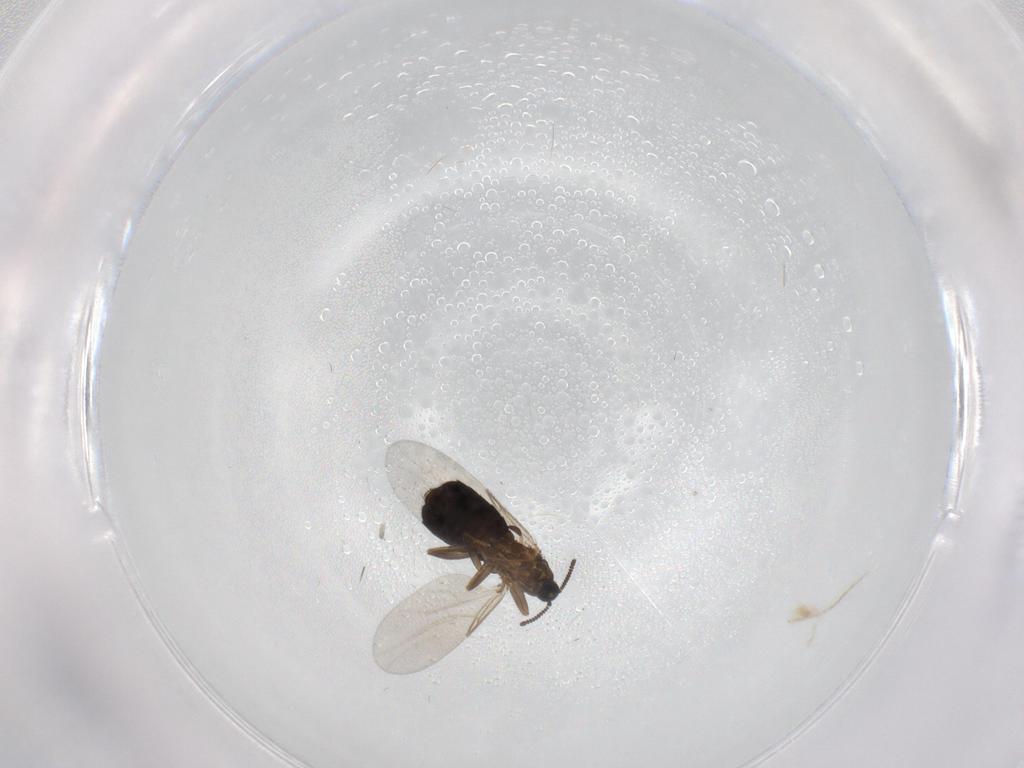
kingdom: Animalia
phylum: Arthropoda
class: Insecta
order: Diptera
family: Scatopsidae
